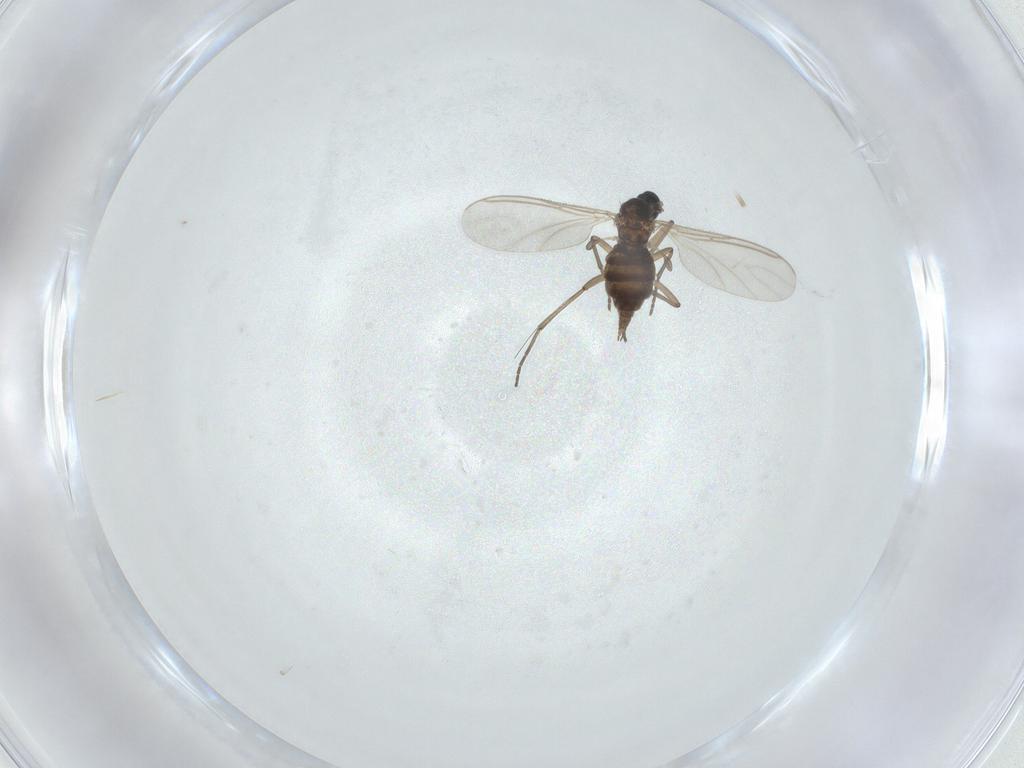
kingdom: Animalia
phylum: Arthropoda
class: Insecta
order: Diptera
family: Sciaridae
